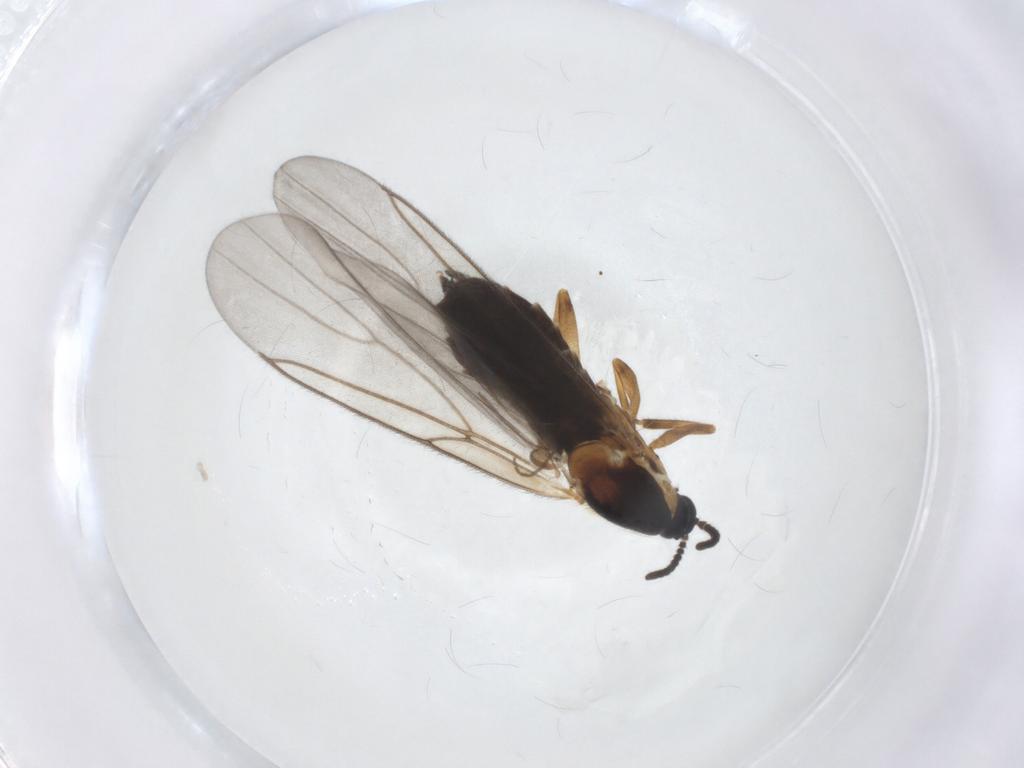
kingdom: Animalia
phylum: Arthropoda
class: Insecta
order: Diptera
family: Scatopsidae
